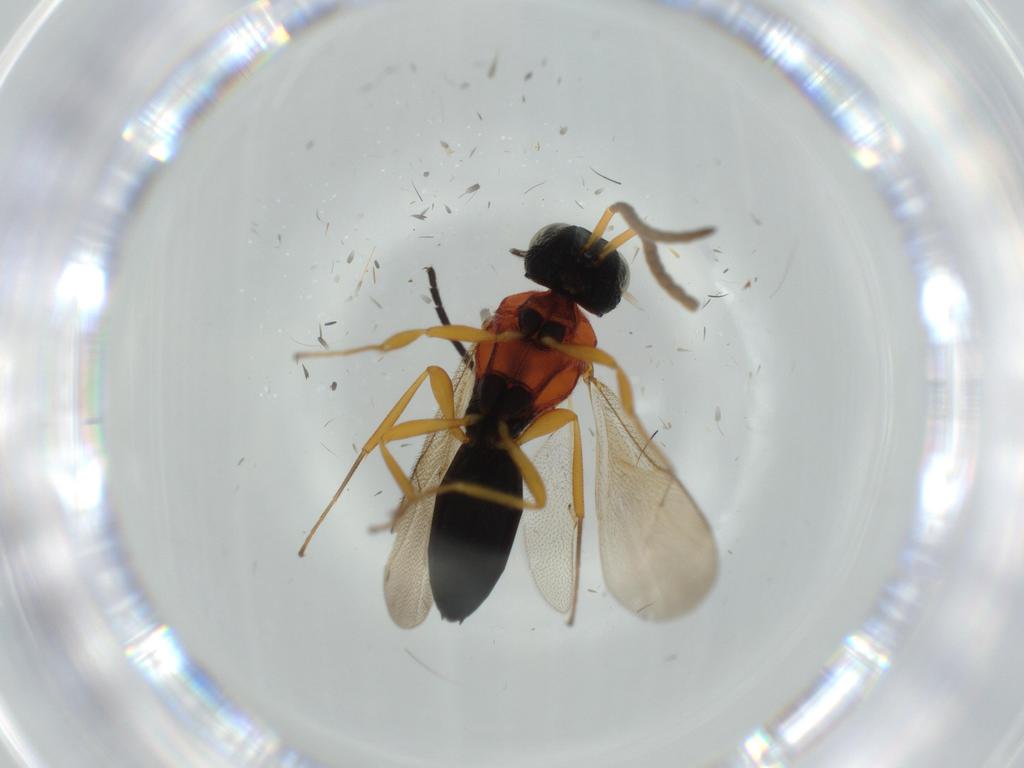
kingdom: Animalia
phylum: Arthropoda
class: Insecta
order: Hymenoptera
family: Scelionidae
